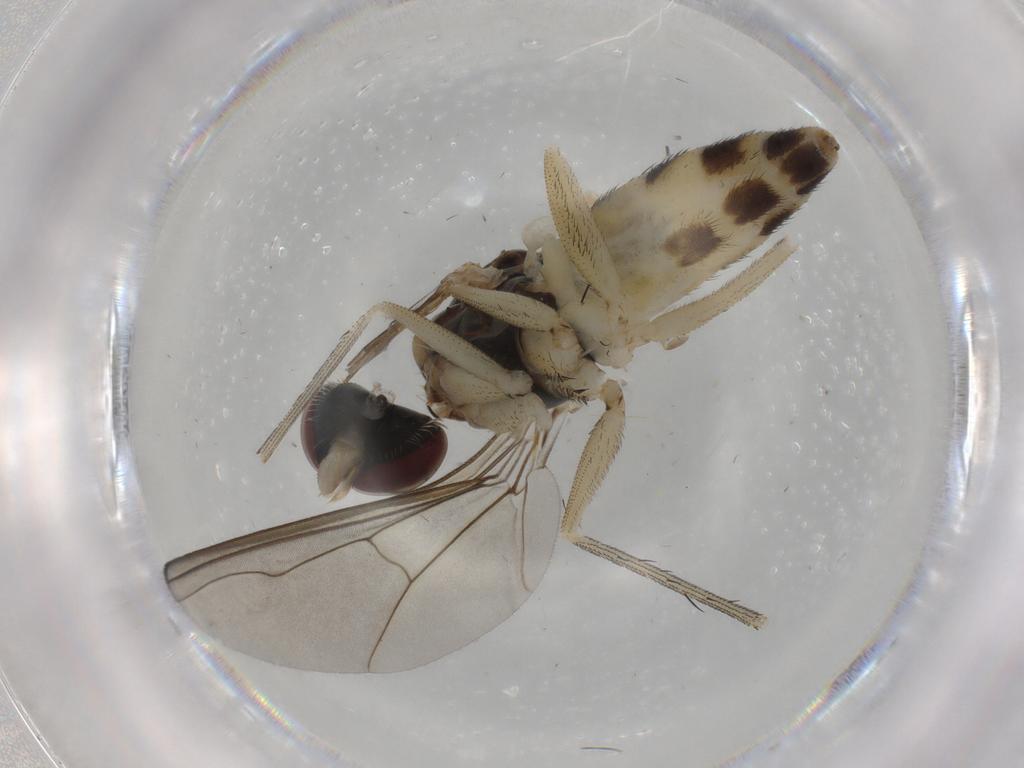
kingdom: Animalia
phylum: Arthropoda
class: Insecta
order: Diptera
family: Dolichopodidae
